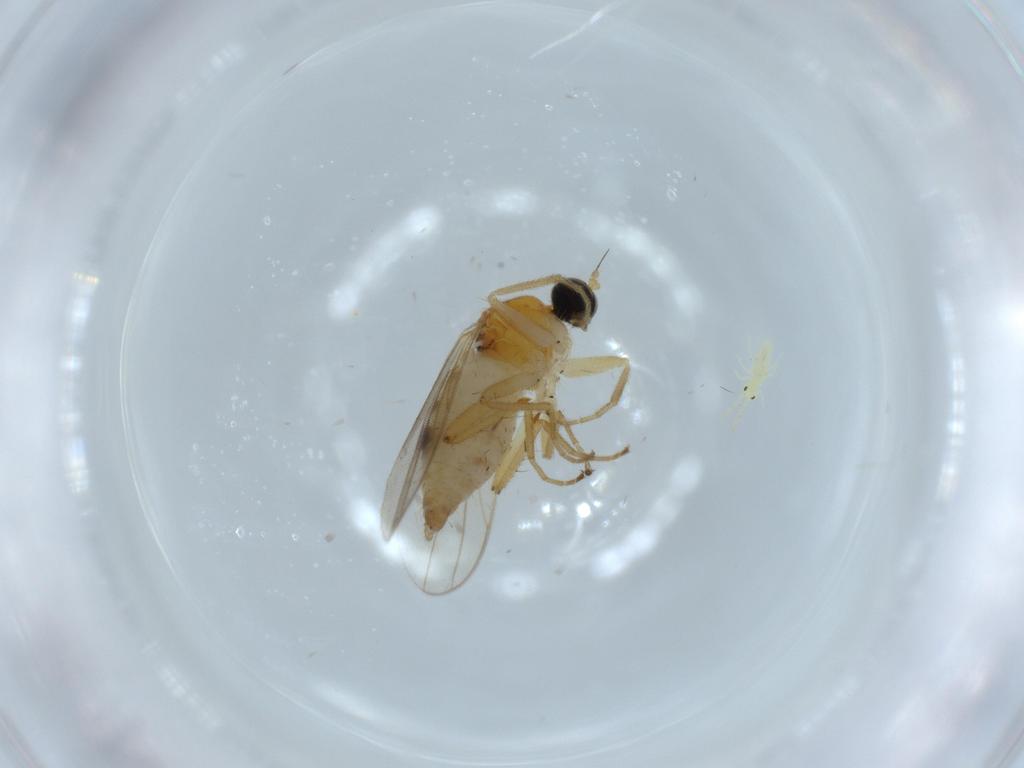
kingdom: Animalia
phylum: Arthropoda
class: Insecta
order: Diptera
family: Hybotidae
